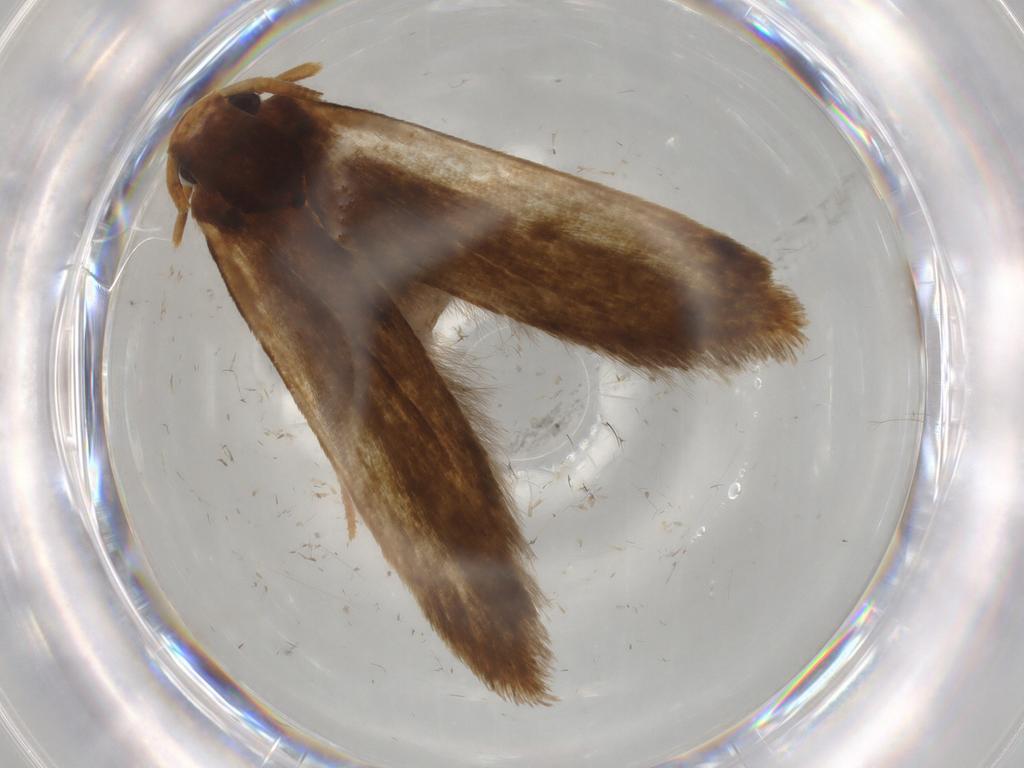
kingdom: Animalia
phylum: Arthropoda
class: Insecta
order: Lepidoptera
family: Tineidae
